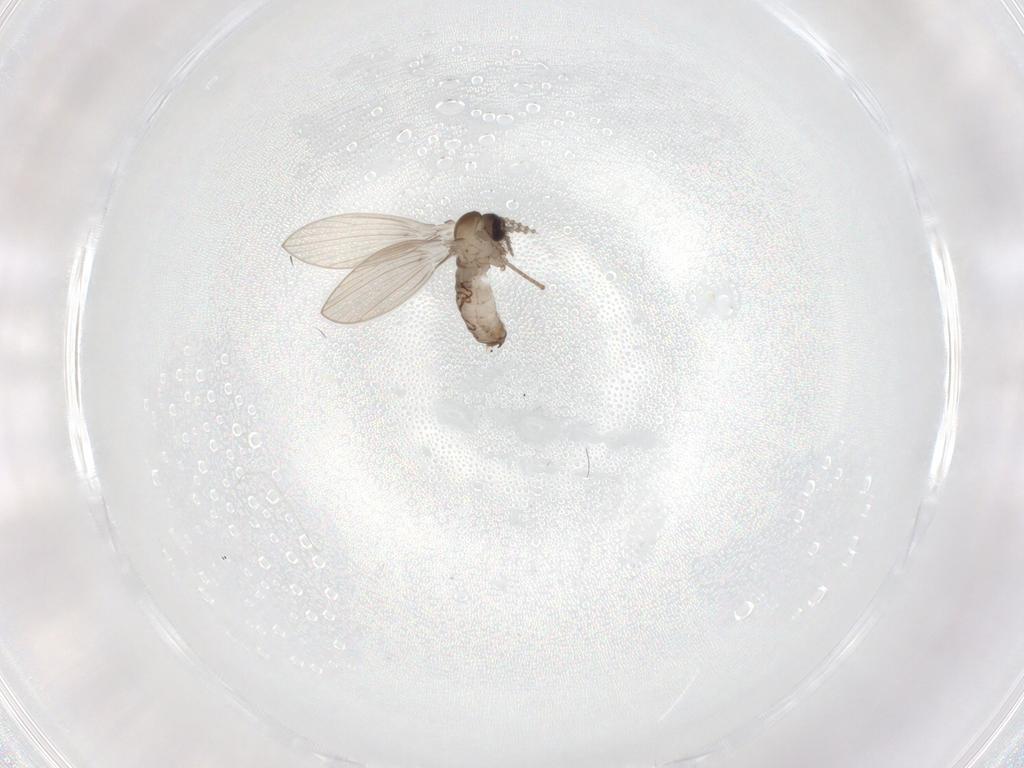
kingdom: Animalia
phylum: Arthropoda
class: Insecta
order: Diptera
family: Psychodidae
